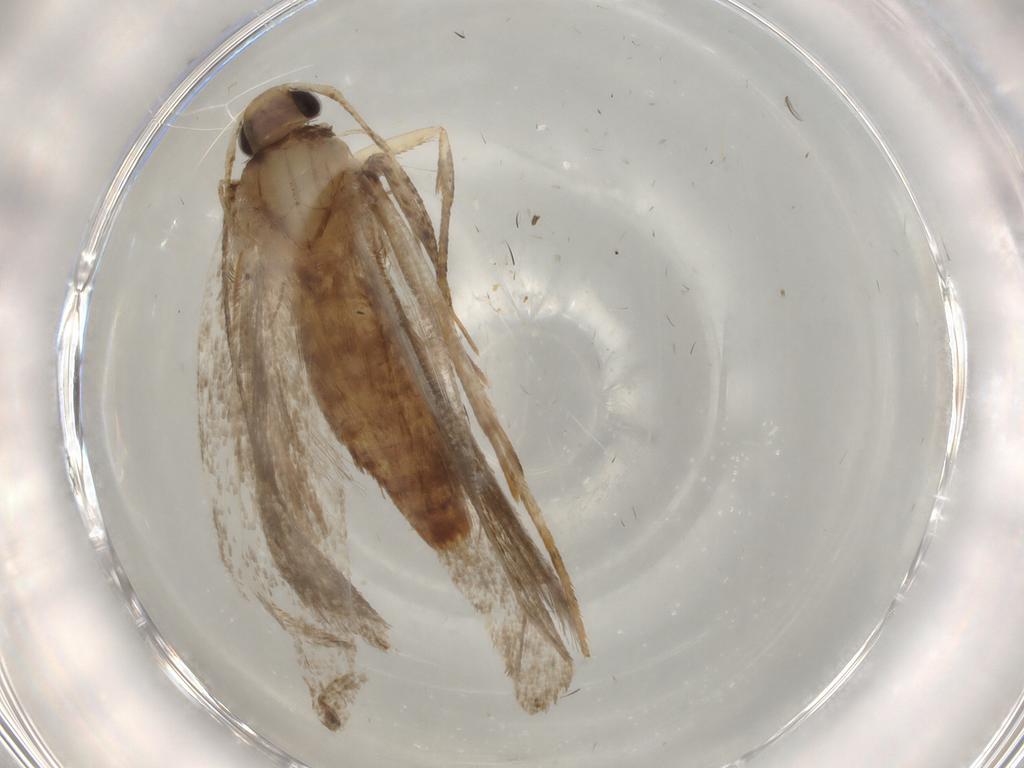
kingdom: Animalia
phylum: Arthropoda
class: Insecta
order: Lepidoptera
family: Cosmopterigidae
